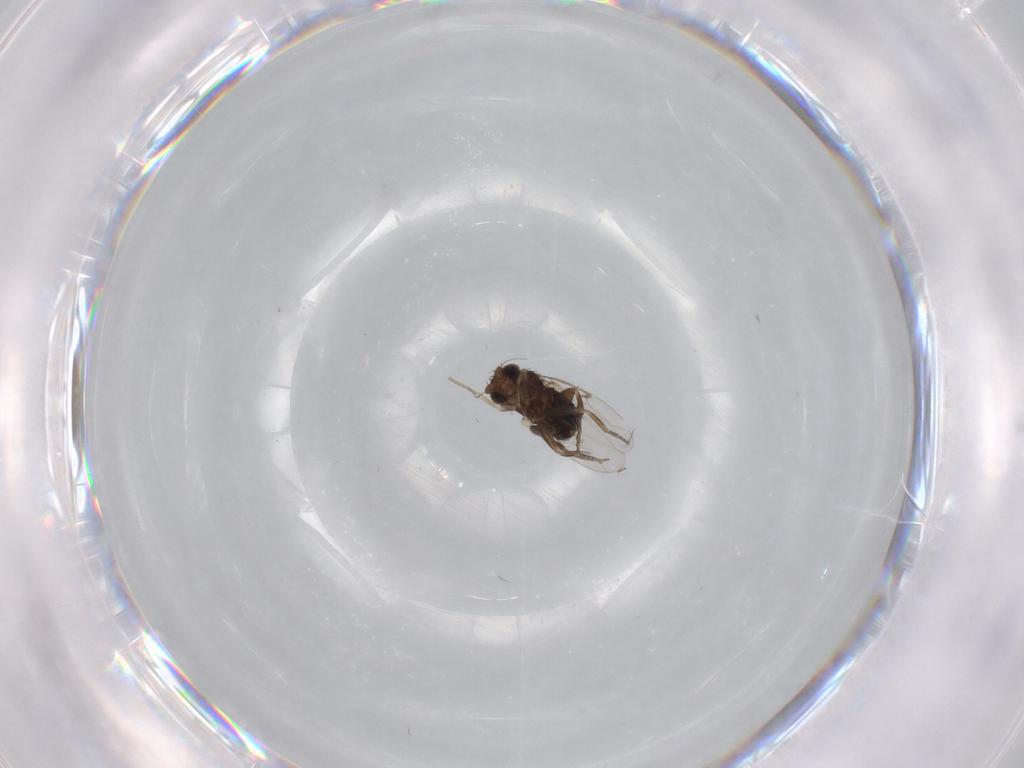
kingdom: Animalia
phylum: Arthropoda
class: Insecta
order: Diptera
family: Phoridae
